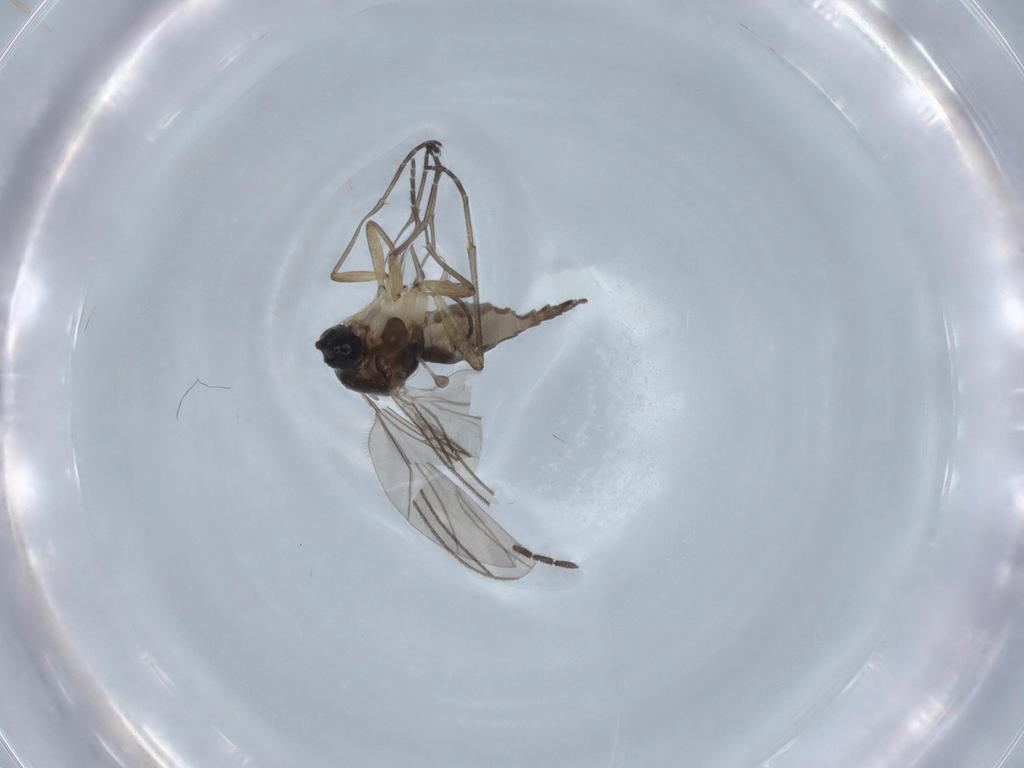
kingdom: Animalia
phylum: Arthropoda
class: Insecta
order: Diptera
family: Sciaridae
